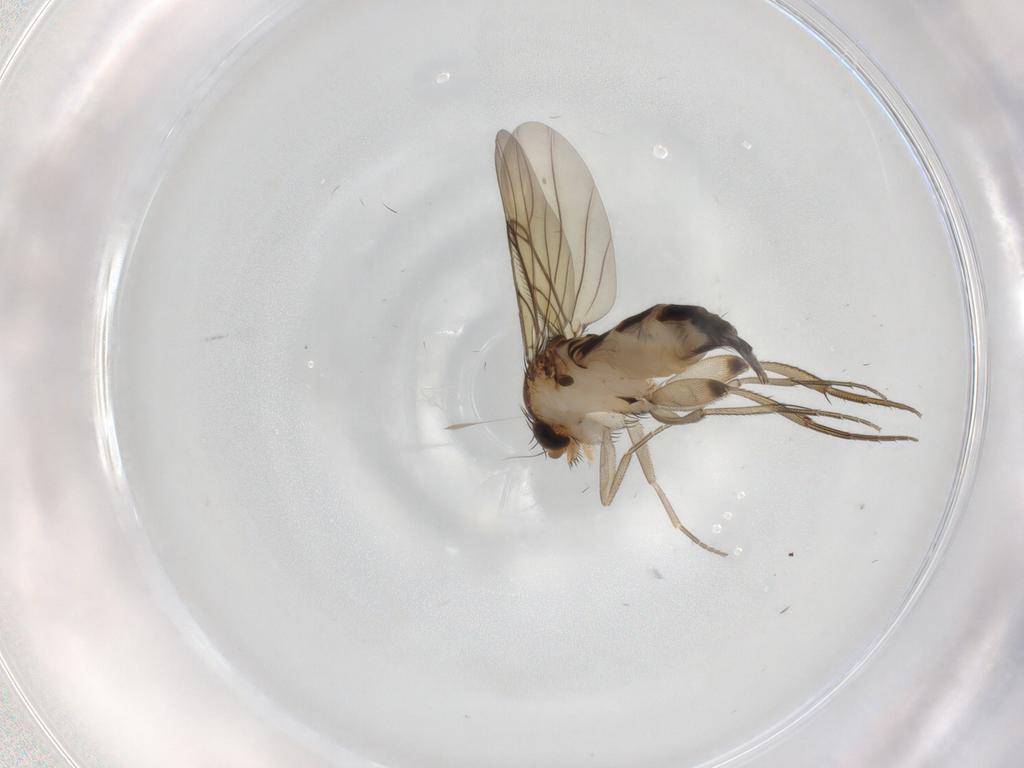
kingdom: Animalia
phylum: Arthropoda
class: Insecta
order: Diptera
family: Phoridae
